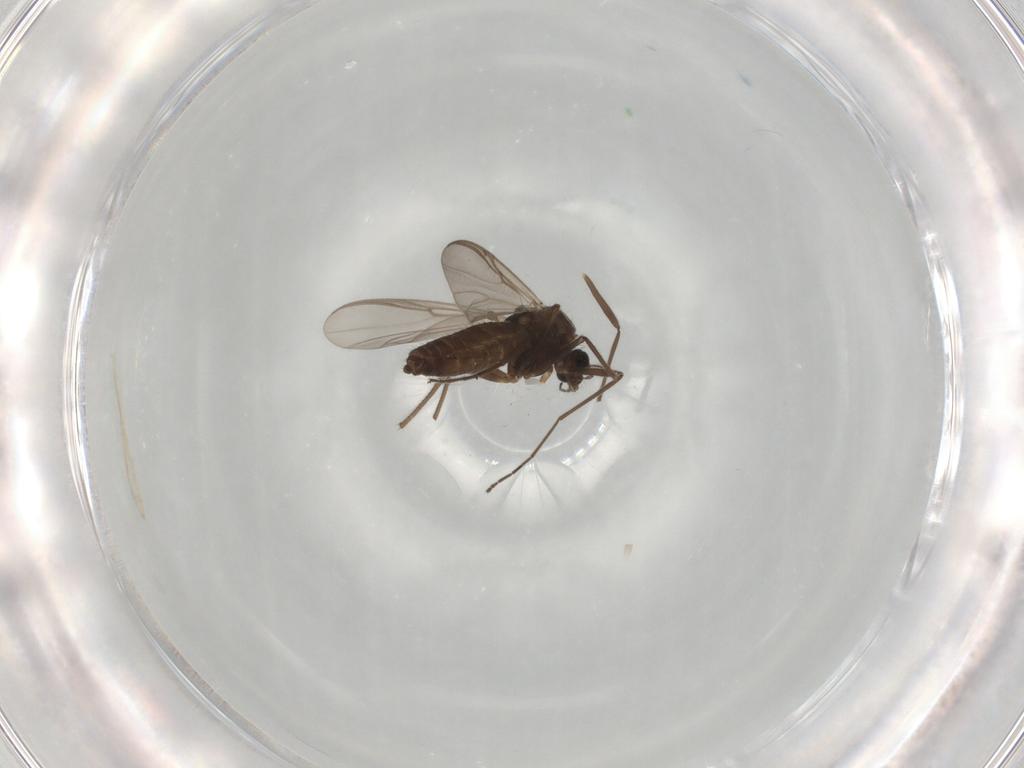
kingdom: Animalia
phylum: Arthropoda
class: Insecta
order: Diptera
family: Chironomidae
